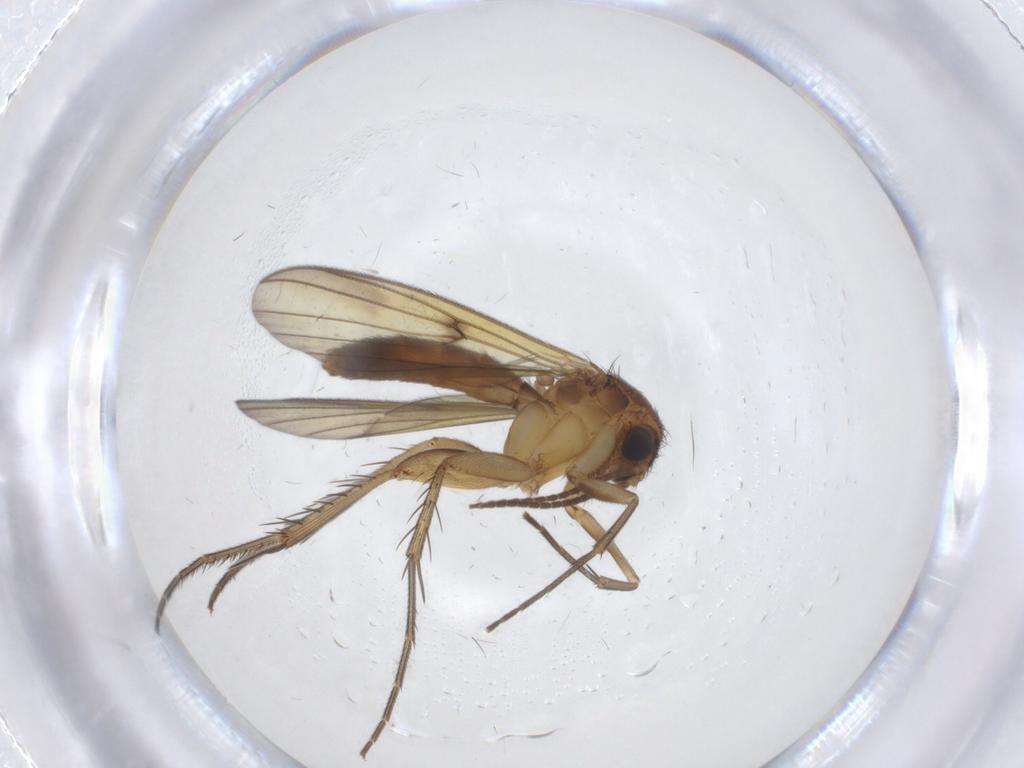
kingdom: Animalia
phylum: Arthropoda
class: Insecta
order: Diptera
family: Mycetophilidae
